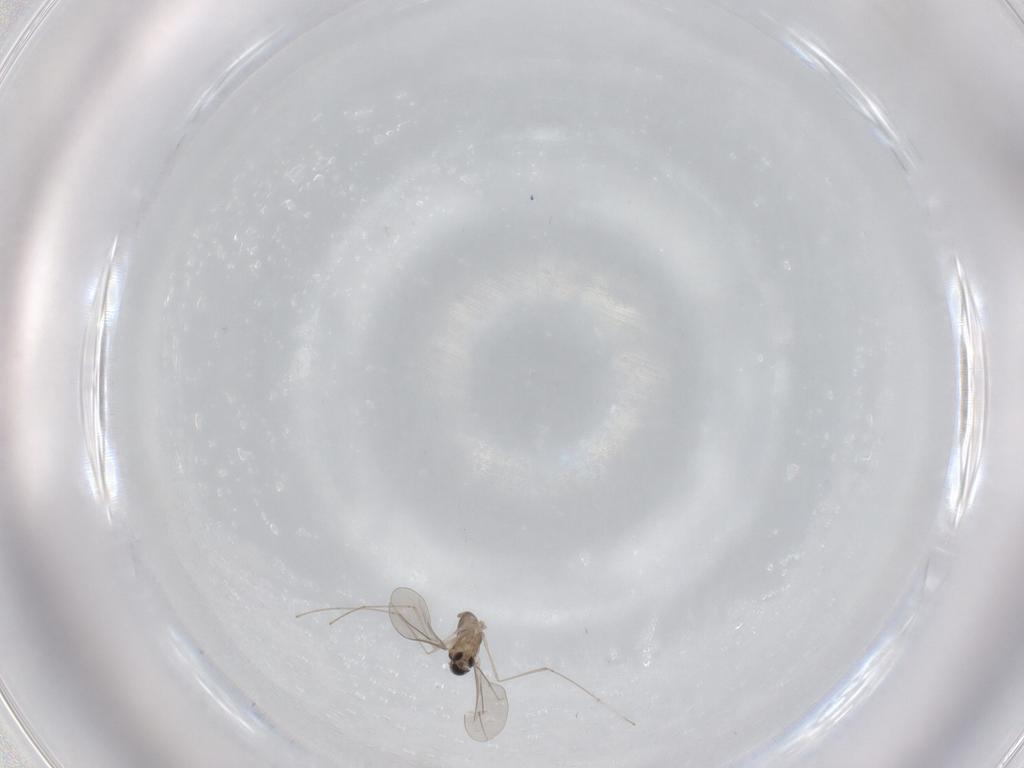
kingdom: Animalia
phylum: Arthropoda
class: Insecta
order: Diptera
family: Cecidomyiidae
